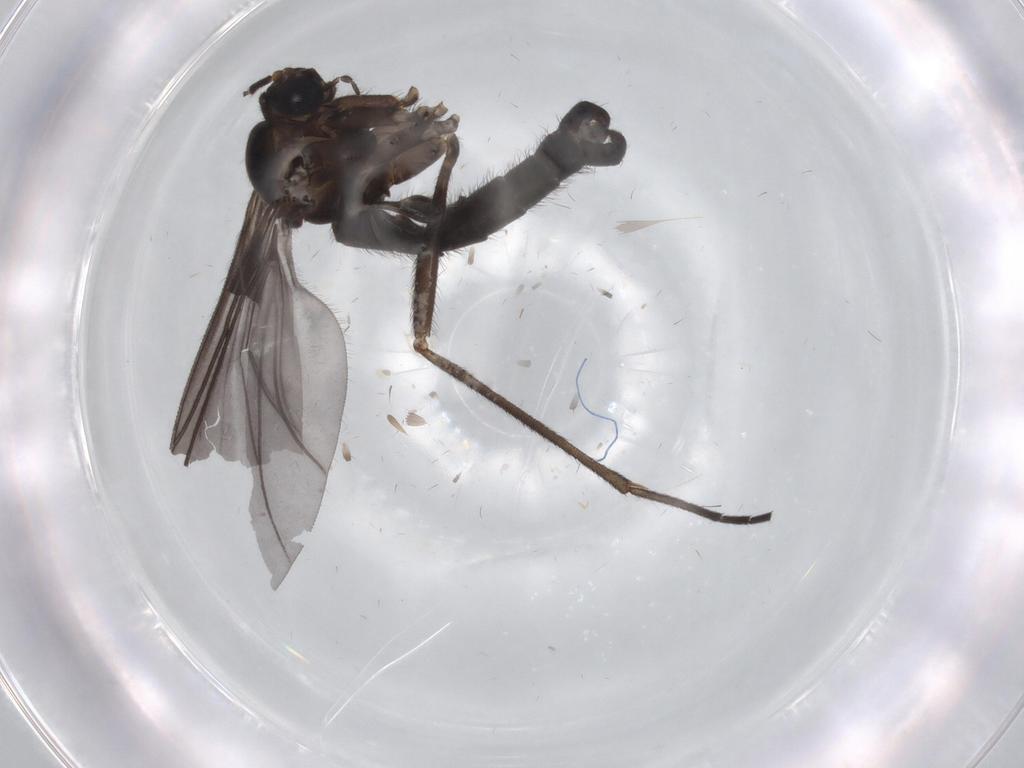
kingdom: Animalia
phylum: Arthropoda
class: Insecta
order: Diptera
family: Phoridae
